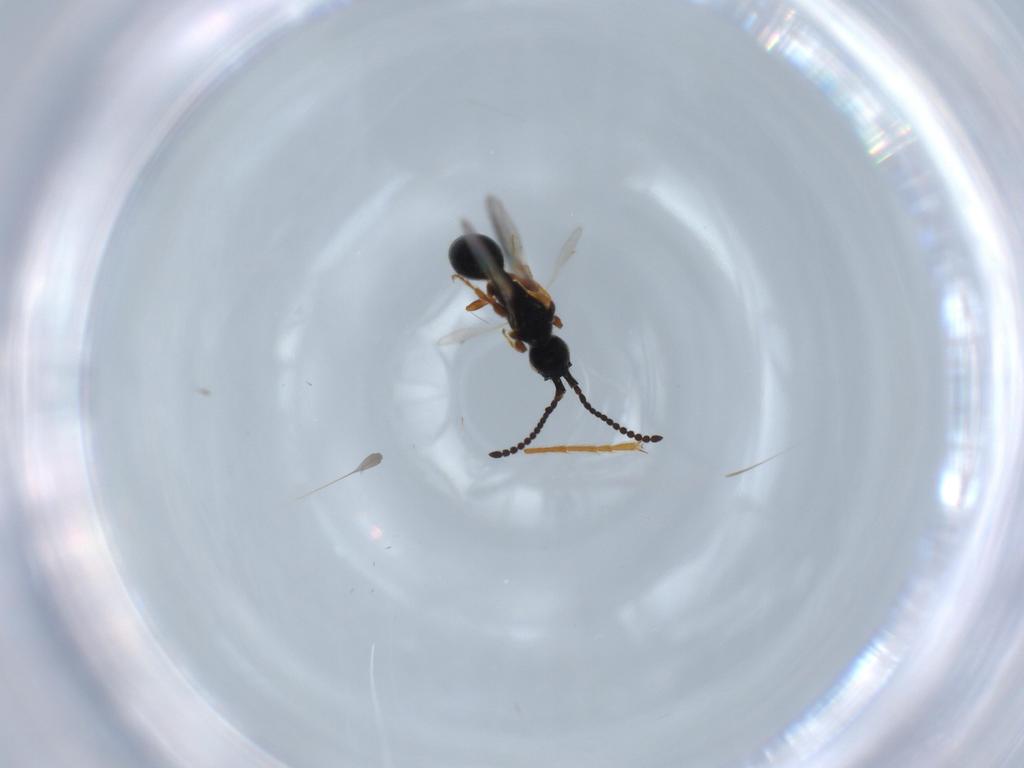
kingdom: Animalia
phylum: Arthropoda
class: Insecta
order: Hymenoptera
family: Diapriidae
